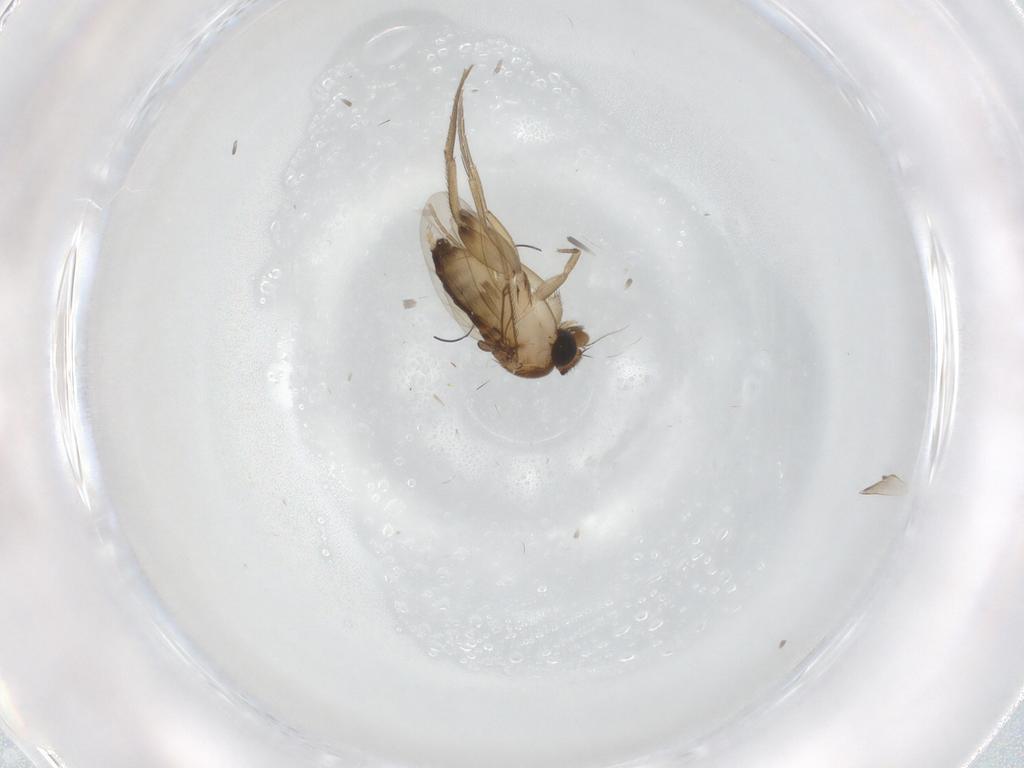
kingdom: Animalia
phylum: Arthropoda
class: Insecta
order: Diptera
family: Phoridae
